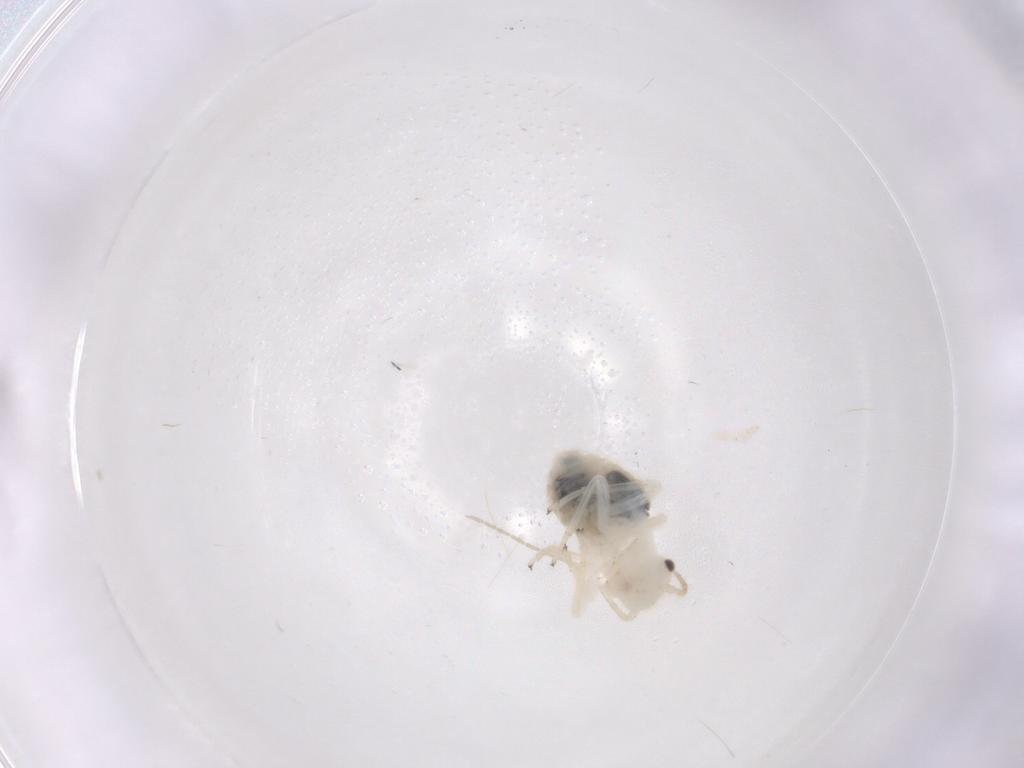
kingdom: Animalia
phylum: Arthropoda
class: Insecta
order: Psocodea
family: Philotarsidae
